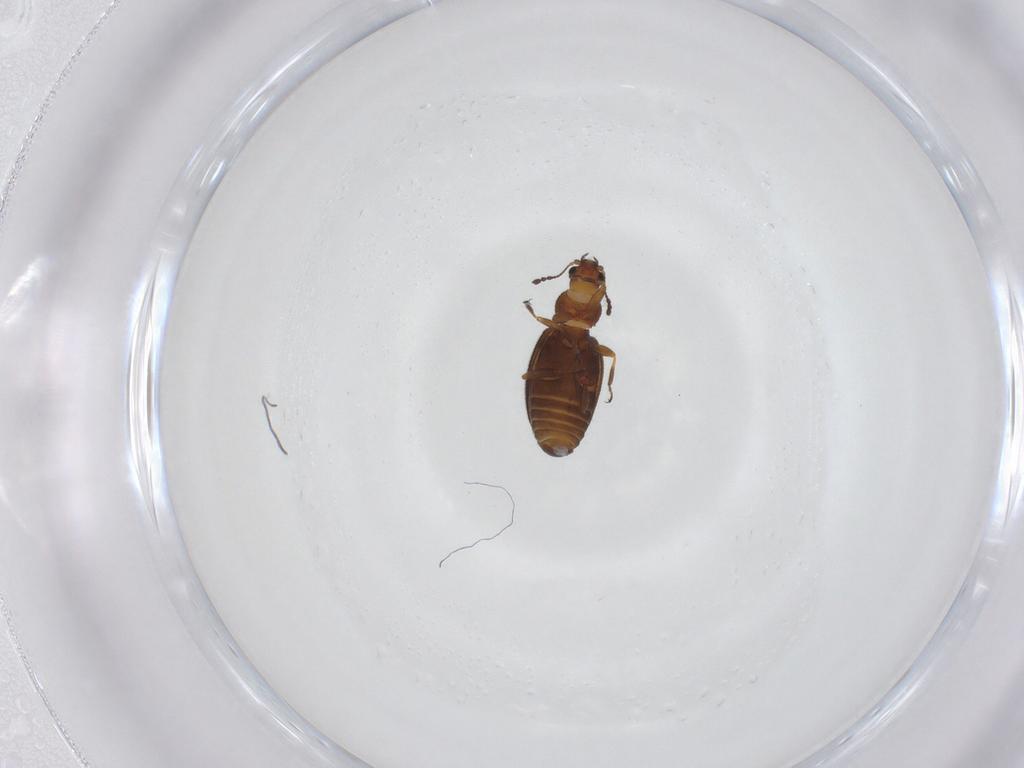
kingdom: Animalia
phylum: Arthropoda
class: Insecta
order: Coleoptera
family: Latridiidae
